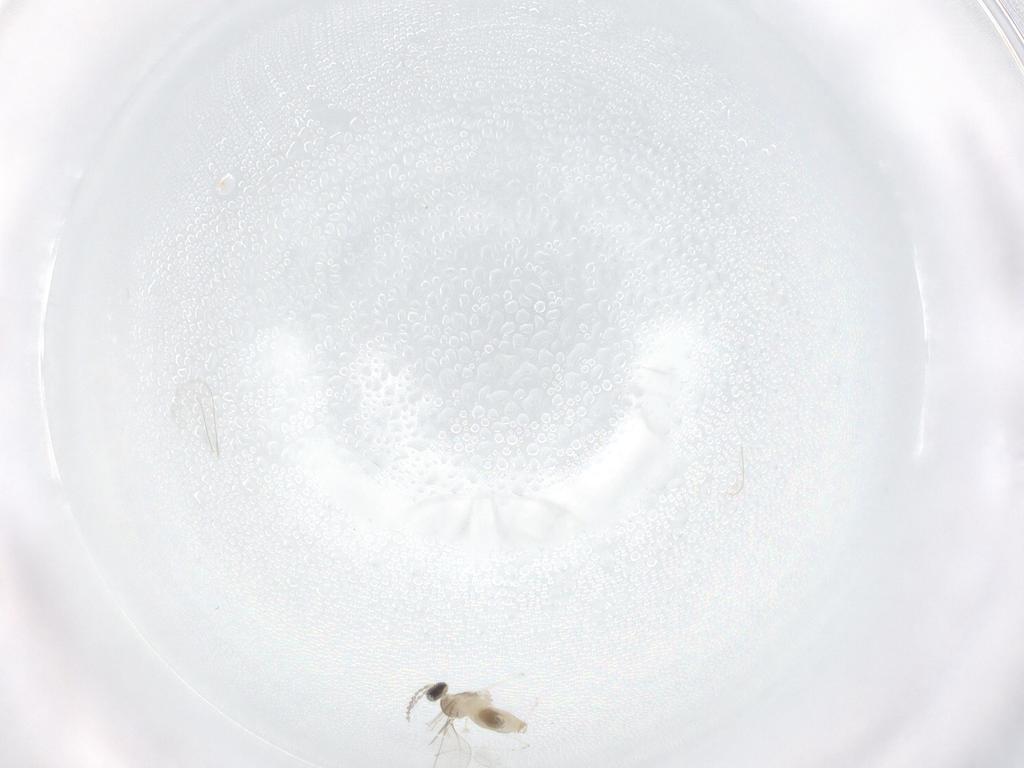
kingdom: Animalia
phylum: Arthropoda
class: Insecta
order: Diptera
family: Cecidomyiidae
